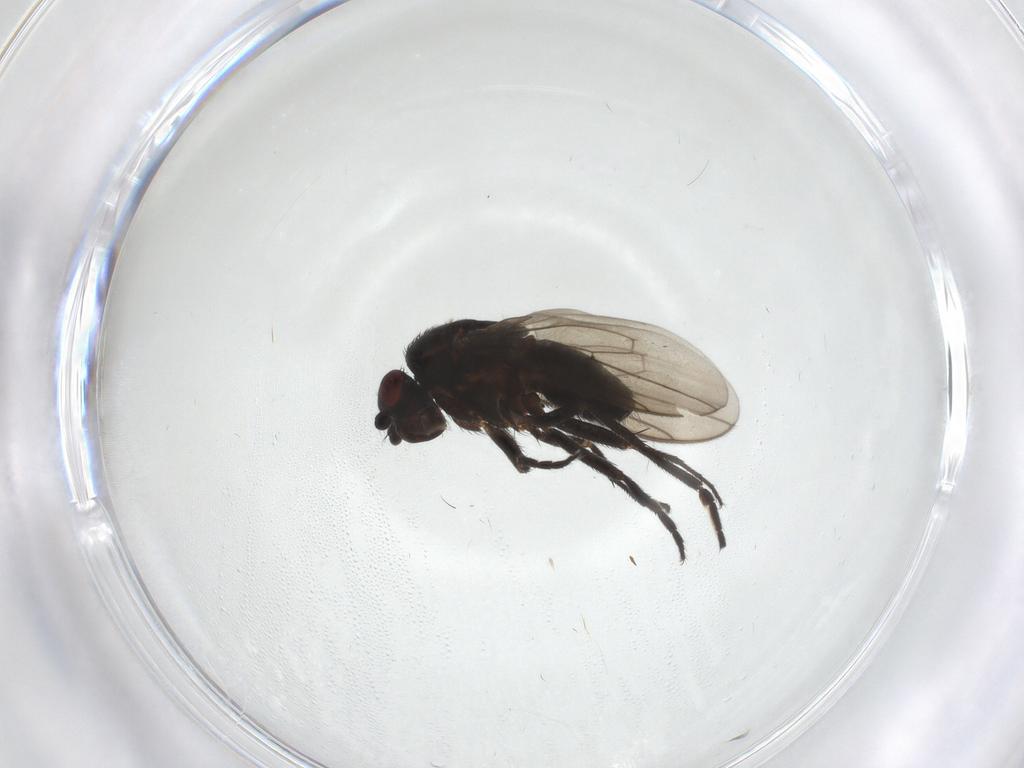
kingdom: Animalia
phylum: Arthropoda
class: Insecta
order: Diptera
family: Sphaeroceridae
